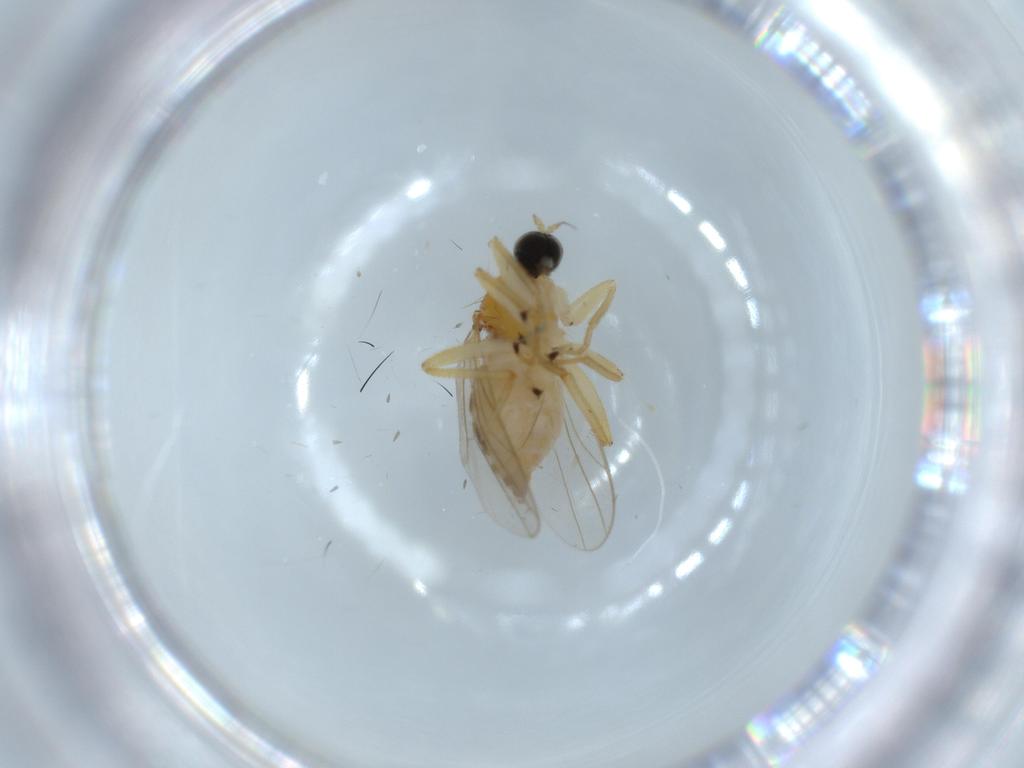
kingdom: Animalia
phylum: Arthropoda
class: Insecta
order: Diptera
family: Hybotidae
